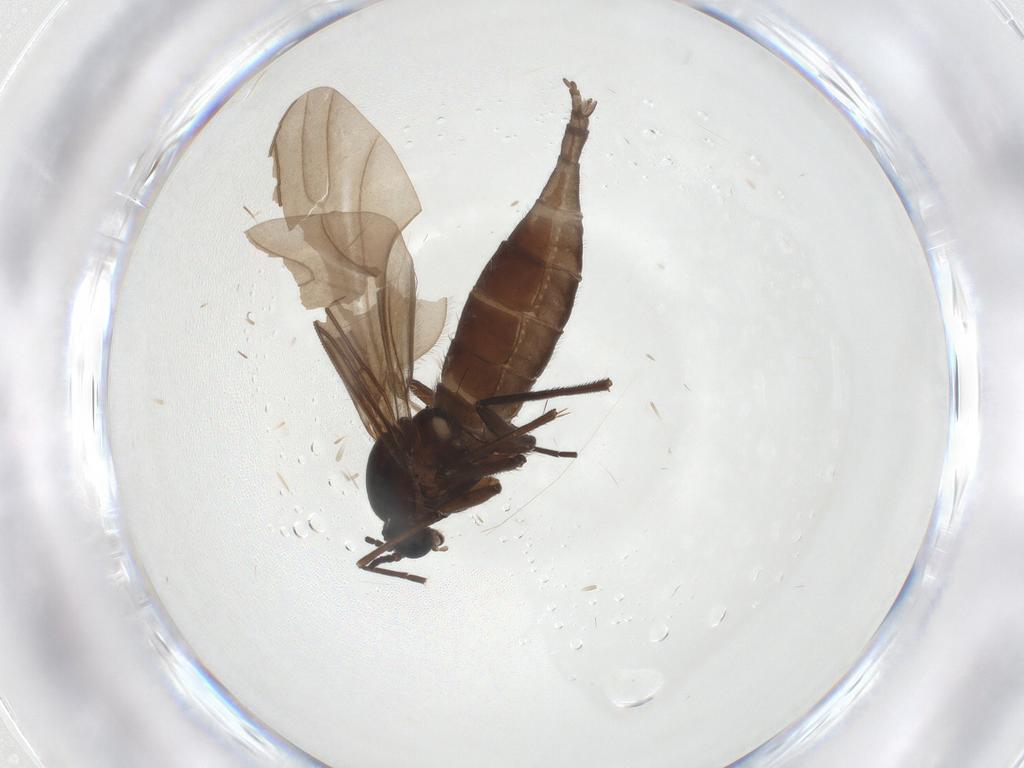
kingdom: Animalia
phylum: Arthropoda
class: Insecta
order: Diptera
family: Sciaridae
